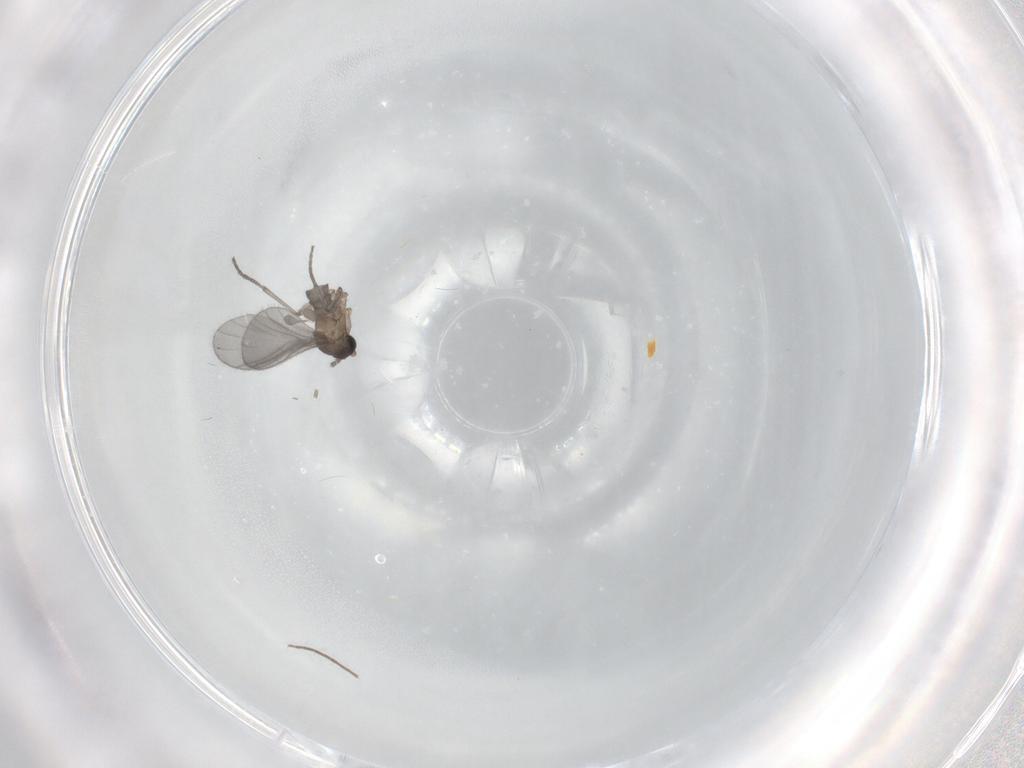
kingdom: Animalia
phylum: Arthropoda
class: Insecta
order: Diptera
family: Chironomidae
